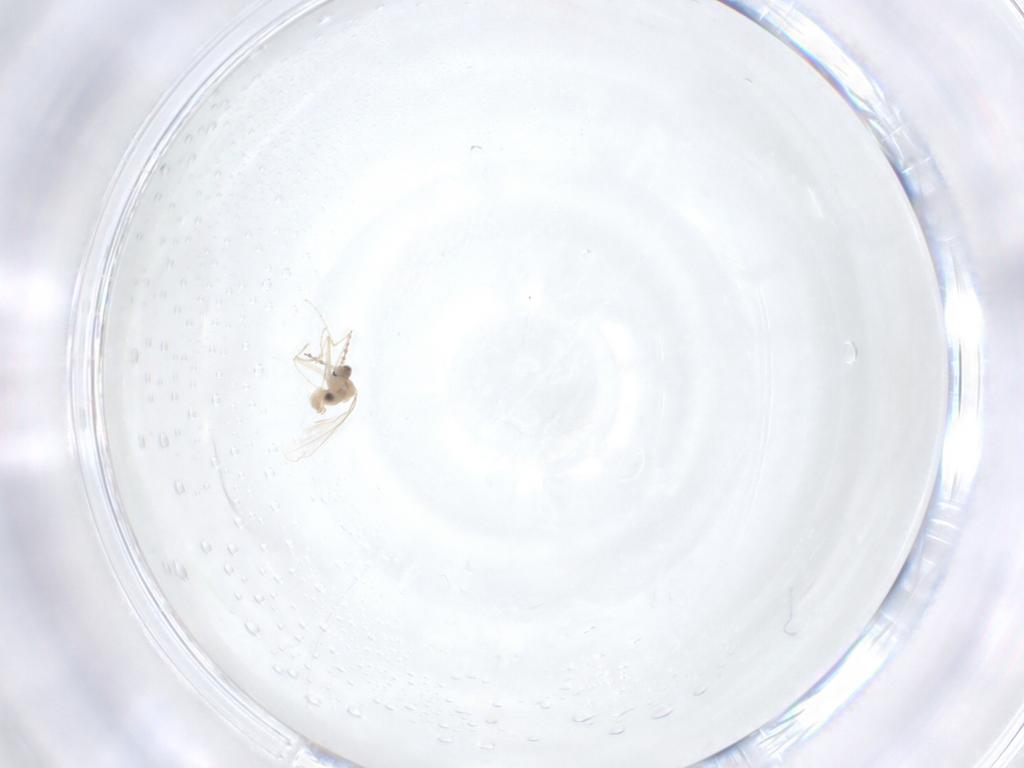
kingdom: Animalia
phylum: Arthropoda
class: Insecta
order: Diptera
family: Cecidomyiidae
